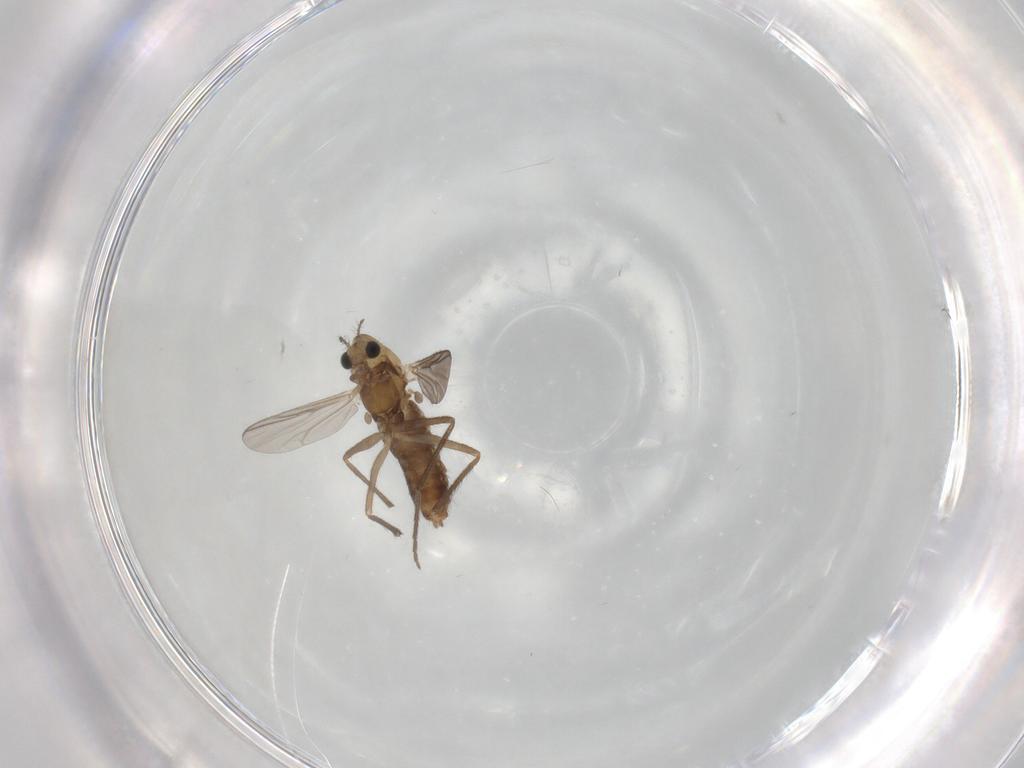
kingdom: Animalia
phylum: Arthropoda
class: Insecta
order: Diptera
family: Chironomidae
